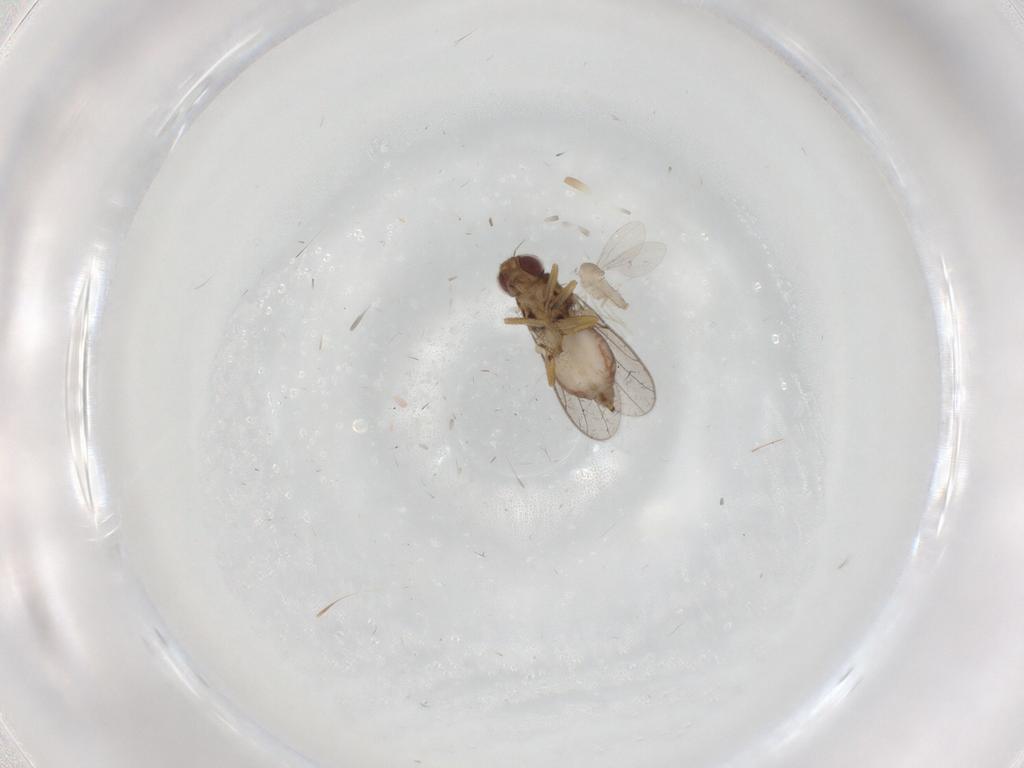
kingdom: Animalia
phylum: Arthropoda
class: Insecta
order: Diptera
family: Chloropidae
